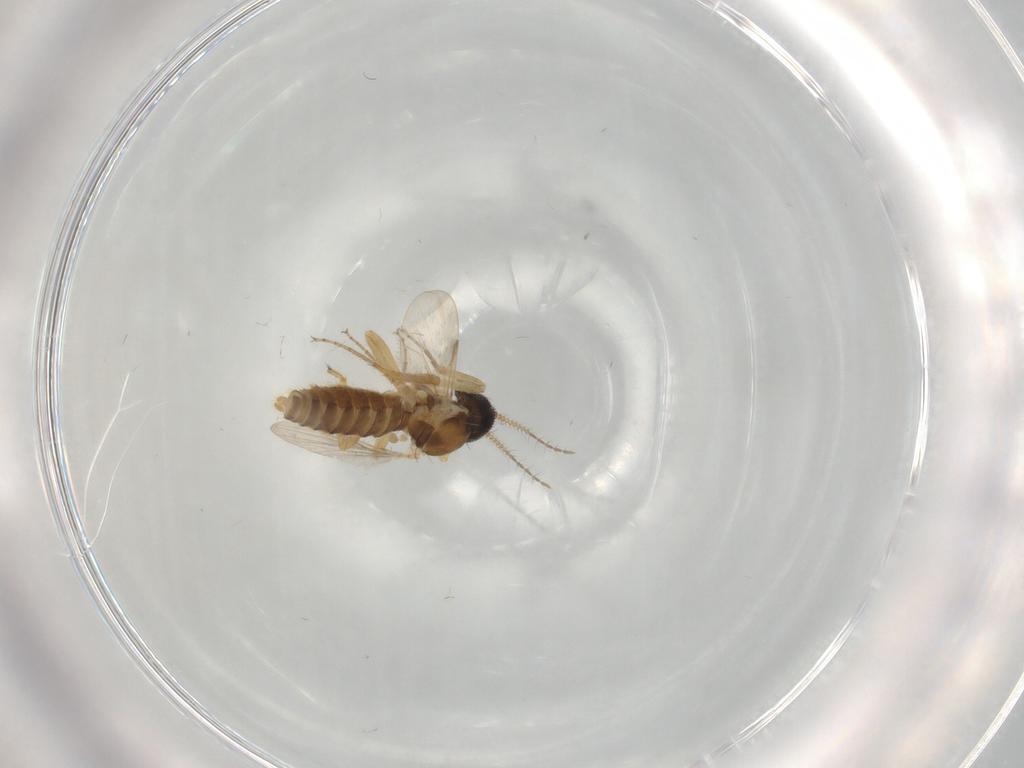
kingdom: Animalia
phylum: Arthropoda
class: Insecta
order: Diptera
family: Ceratopogonidae
